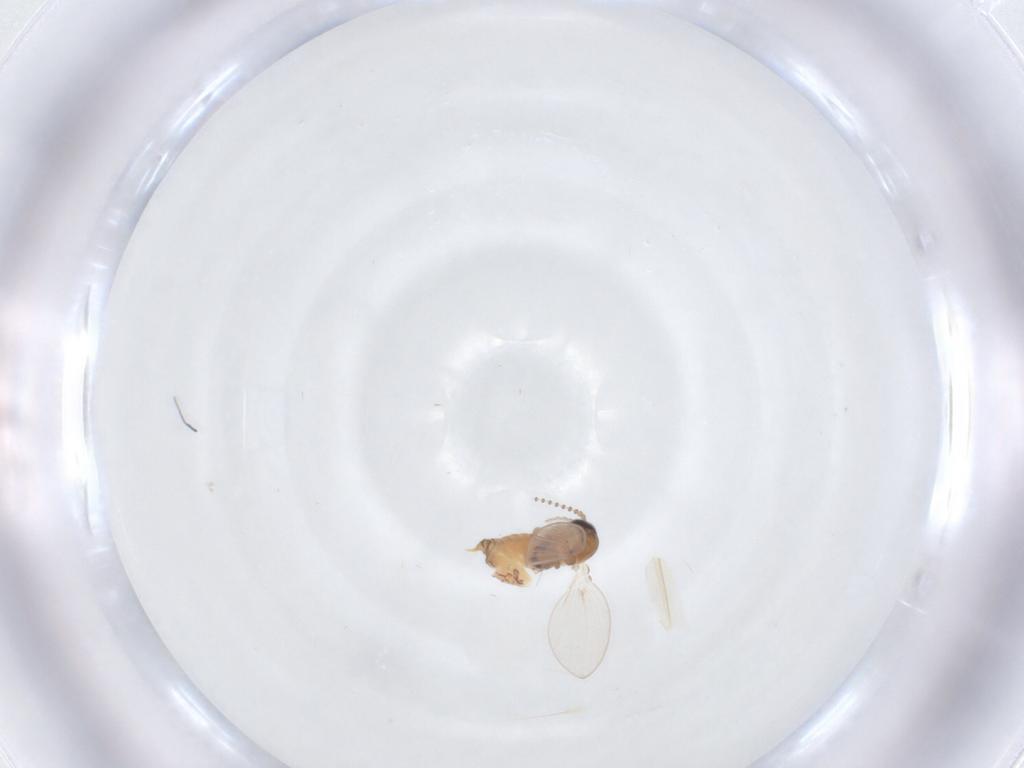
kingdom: Animalia
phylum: Arthropoda
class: Insecta
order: Diptera
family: Psychodidae
